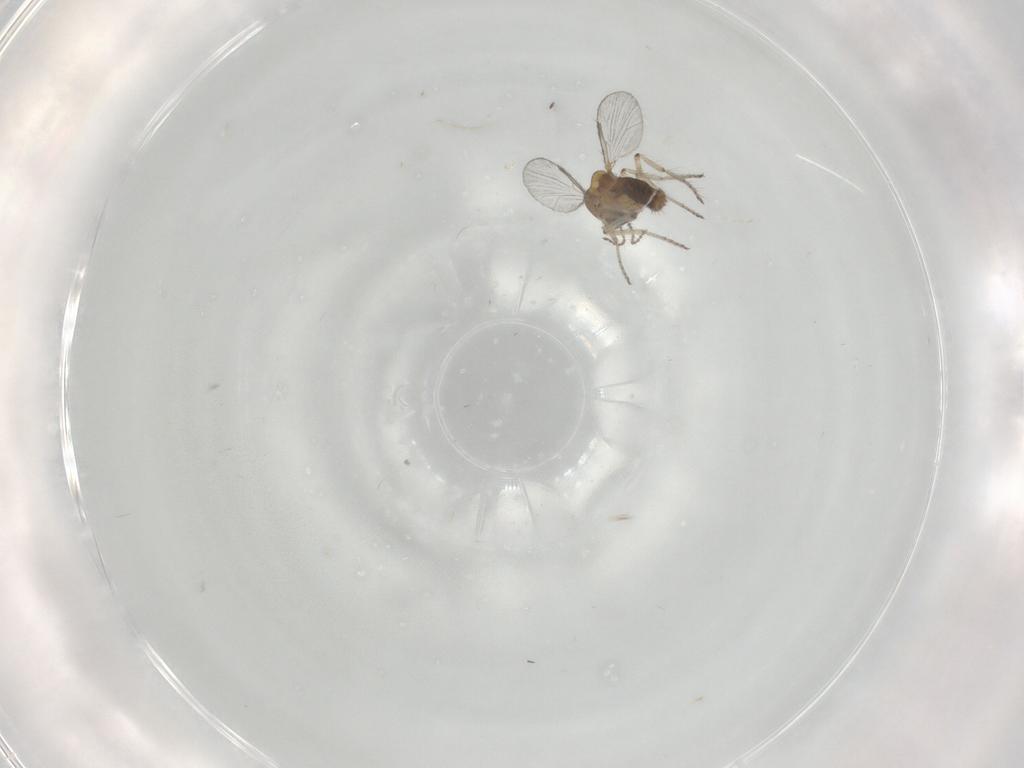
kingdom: Animalia
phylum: Arthropoda
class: Insecta
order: Diptera
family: Ceratopogonidae
